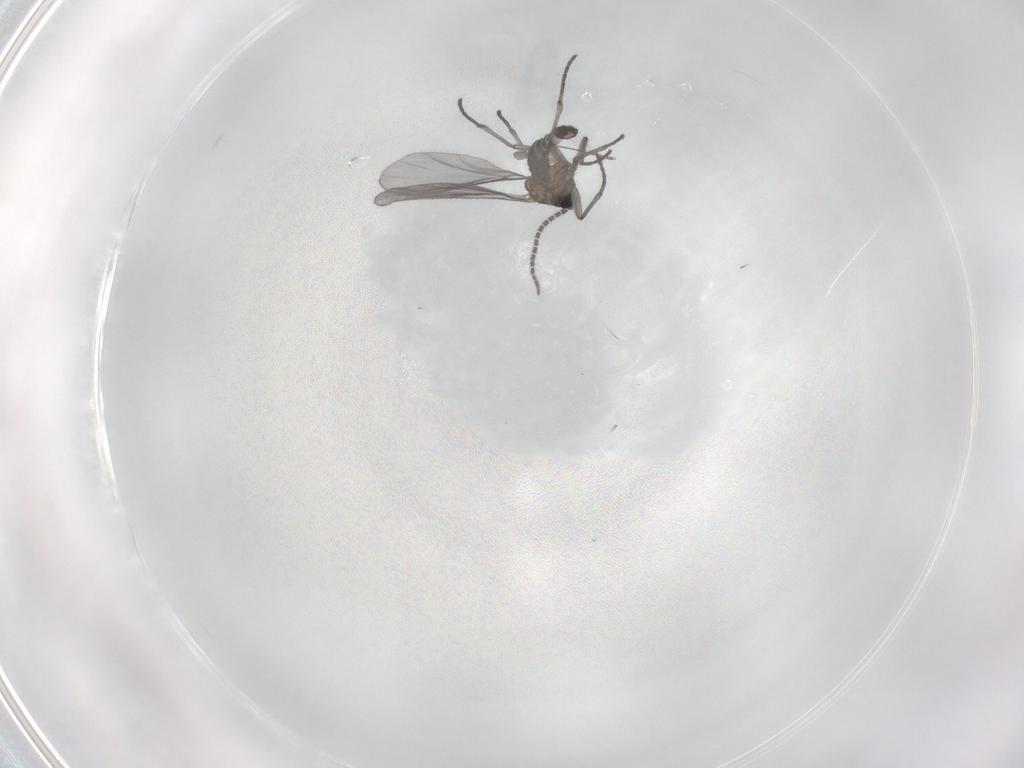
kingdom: Animalia
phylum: Arthropoda
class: Insecta
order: Diptera
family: Sciaridae
